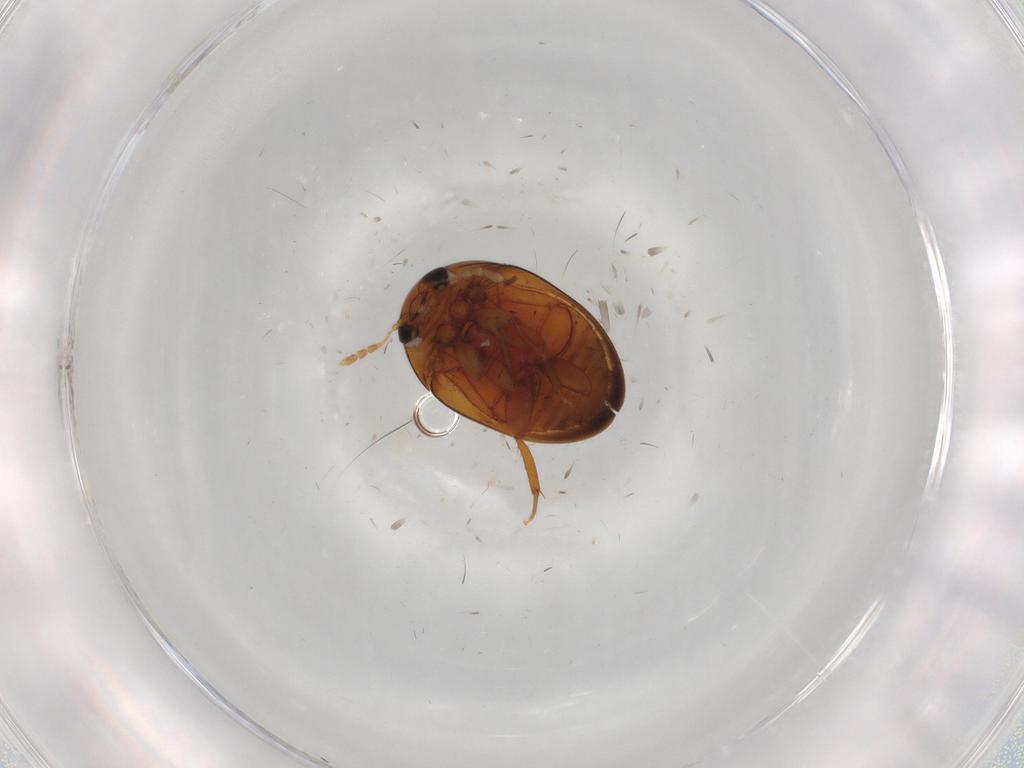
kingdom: Animalia
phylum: Arthropoda
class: Insecta
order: Coleoptera
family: Phalacridae
